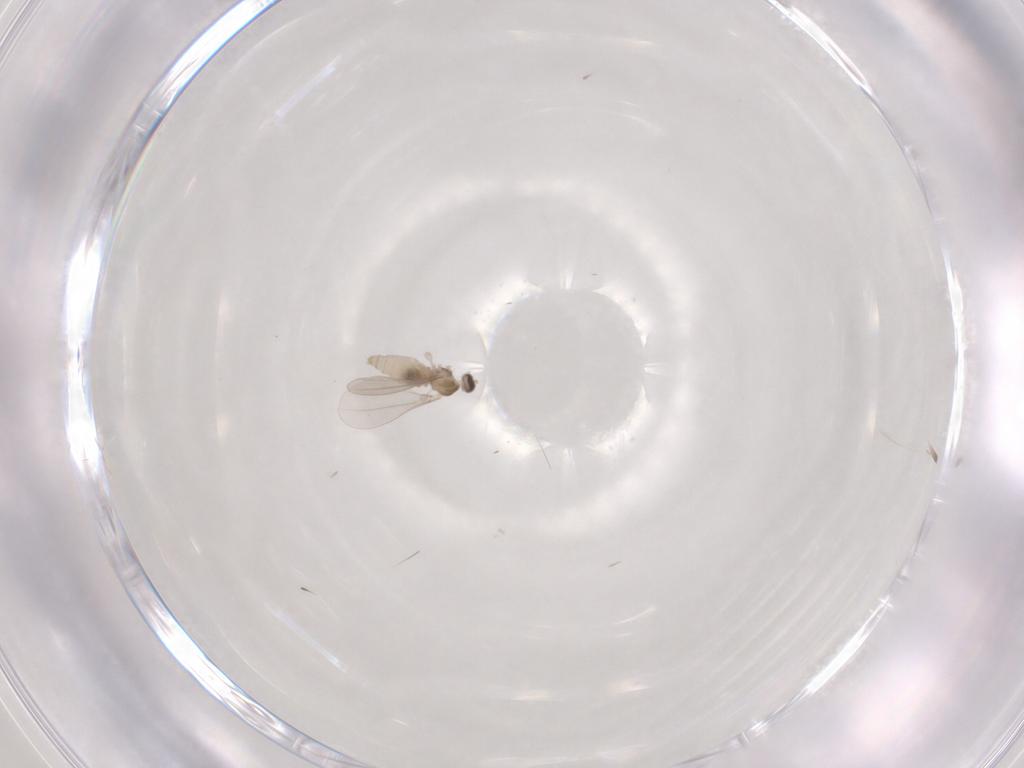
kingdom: Animalia
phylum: Arthropoda
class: Insecta
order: Diptera
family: Cecidomyiidae
